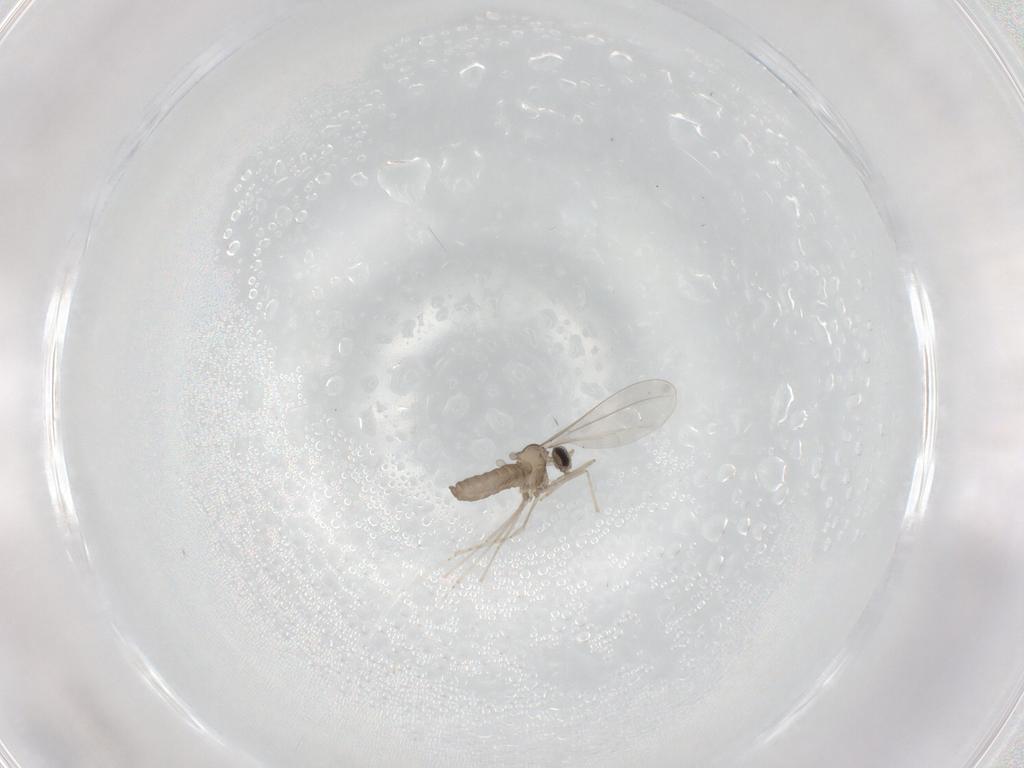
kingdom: Animalia
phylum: Arthropoda
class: Insecta
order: Diptera
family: Cecidomyiidae
